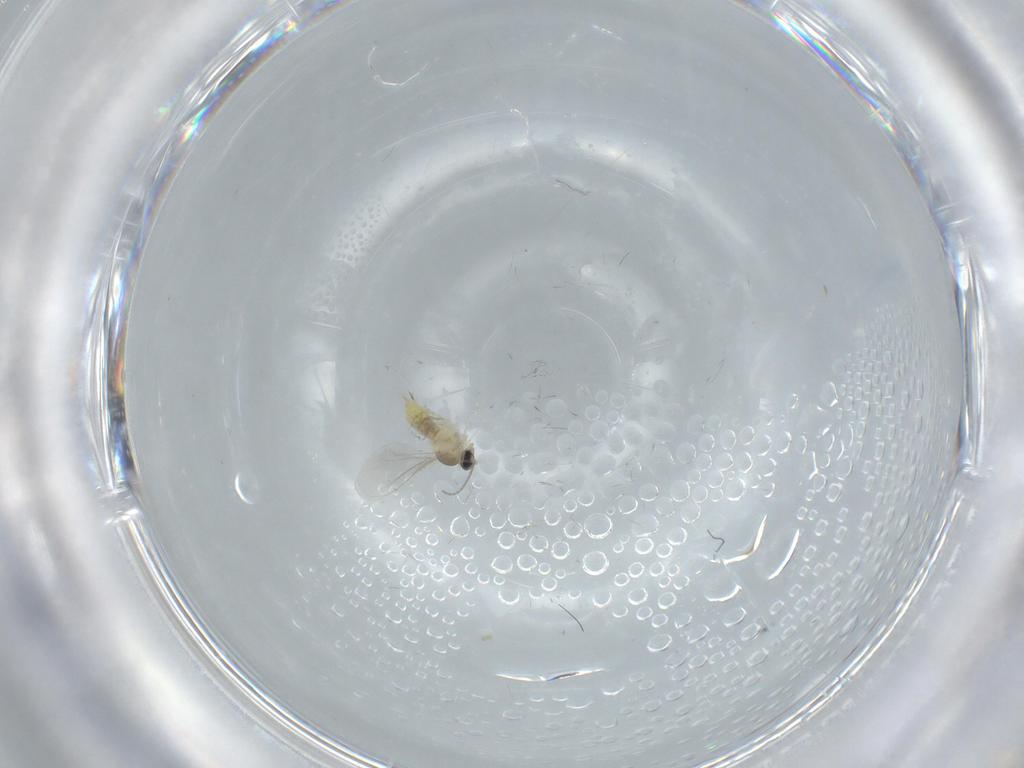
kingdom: Animalia
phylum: Arthropoda
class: Insecta
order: Diptera
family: Cecidomyiidae
